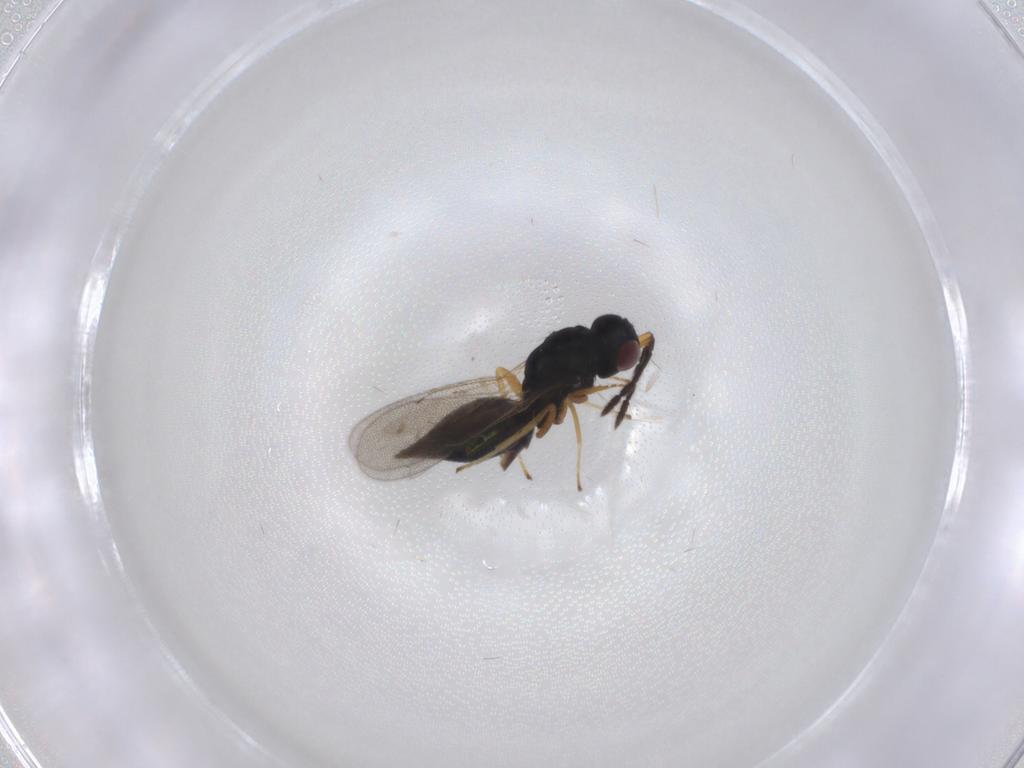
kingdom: Animalia
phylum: Arthropoda
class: Insecta
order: Hymenoptera
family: Eulophidae
